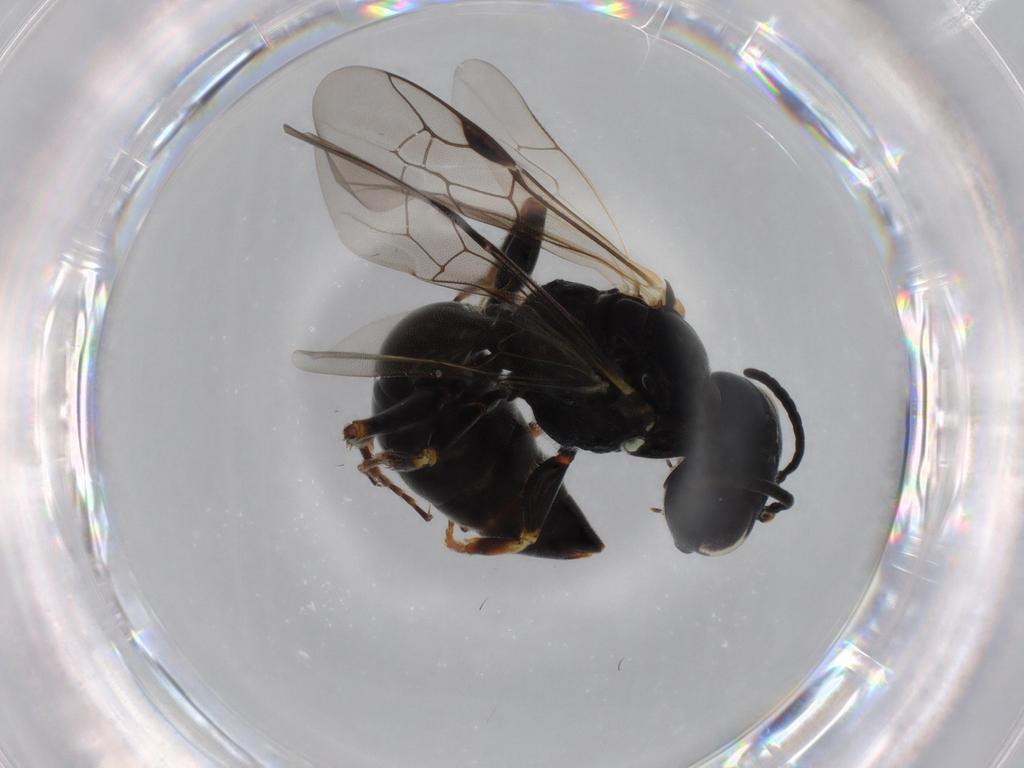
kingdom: Animalia
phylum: Arthropoda
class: Insecta
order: Hymenoptera
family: Crabronidae
